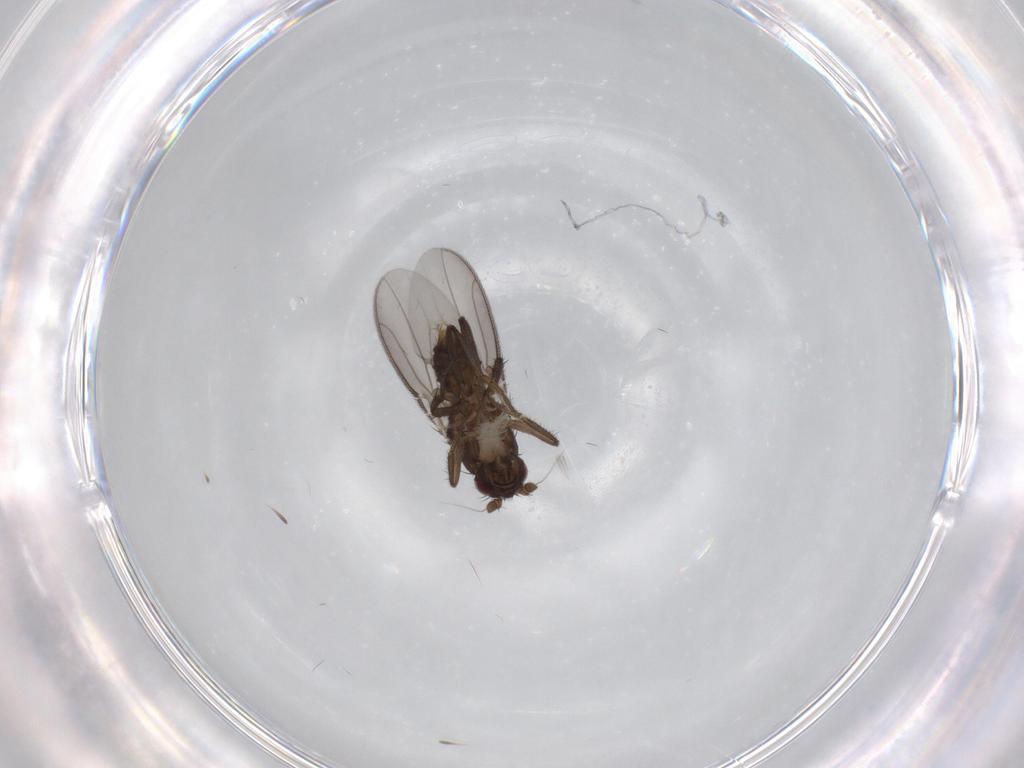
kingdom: Animalia
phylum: Arthropoda
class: Insecta
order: Diptera
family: Sphaeroceridae
